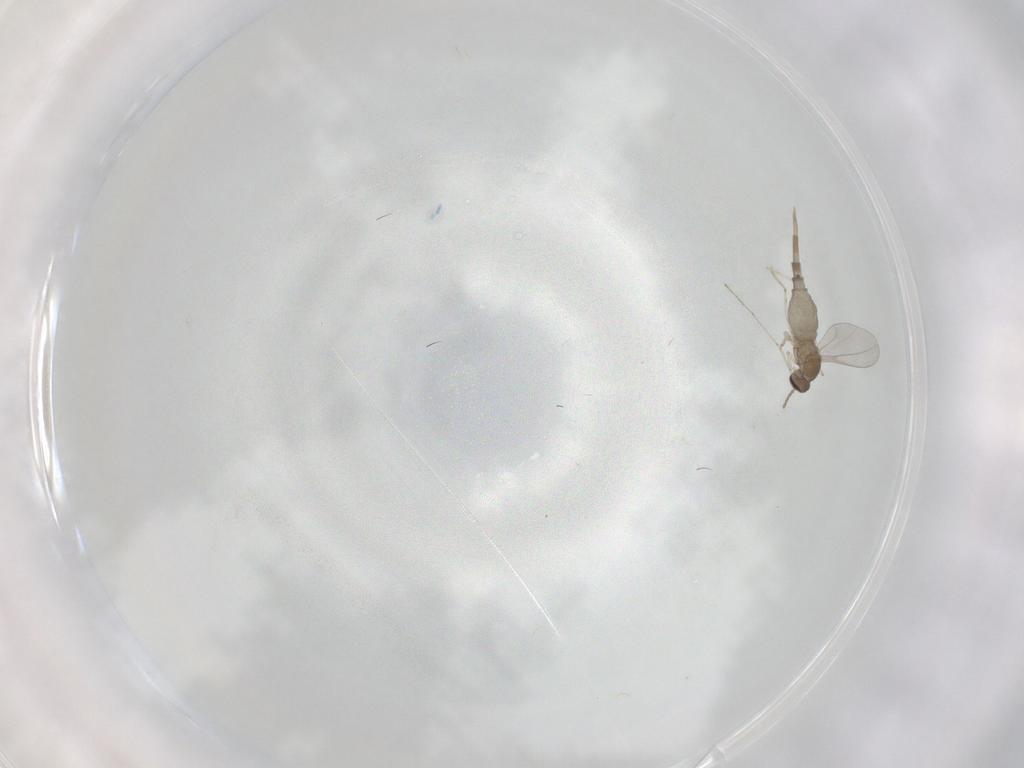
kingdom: Animalia
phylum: Arthropoda
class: Insecta
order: Diptera
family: Cecidomyiidae
